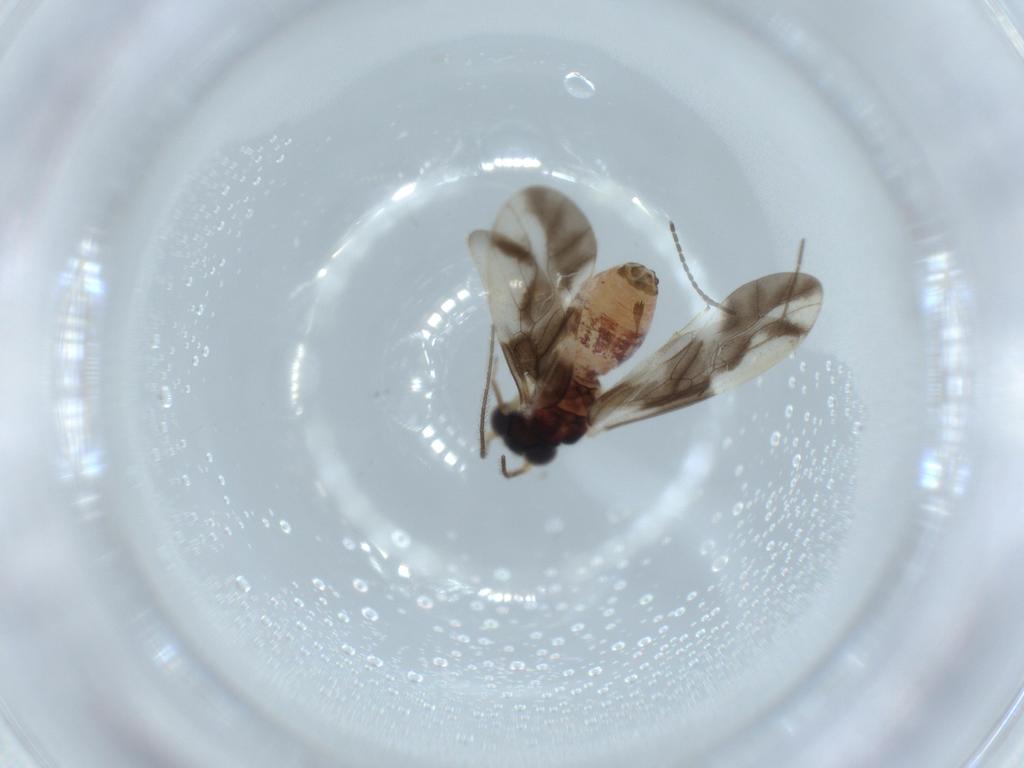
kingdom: Animalia
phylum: Arthropoda
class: Insecta
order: Psocodea
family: Caeciliusidae
